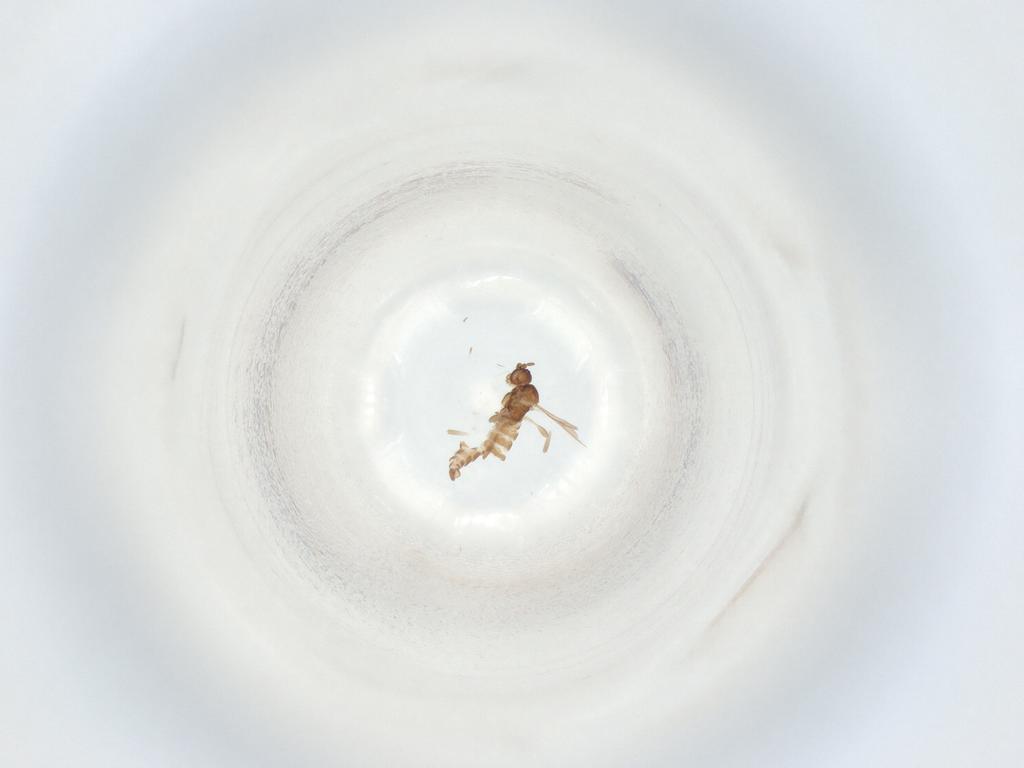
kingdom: Animalia
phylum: Arthropoda
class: Insecta
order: Diptera
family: Sciaridae
